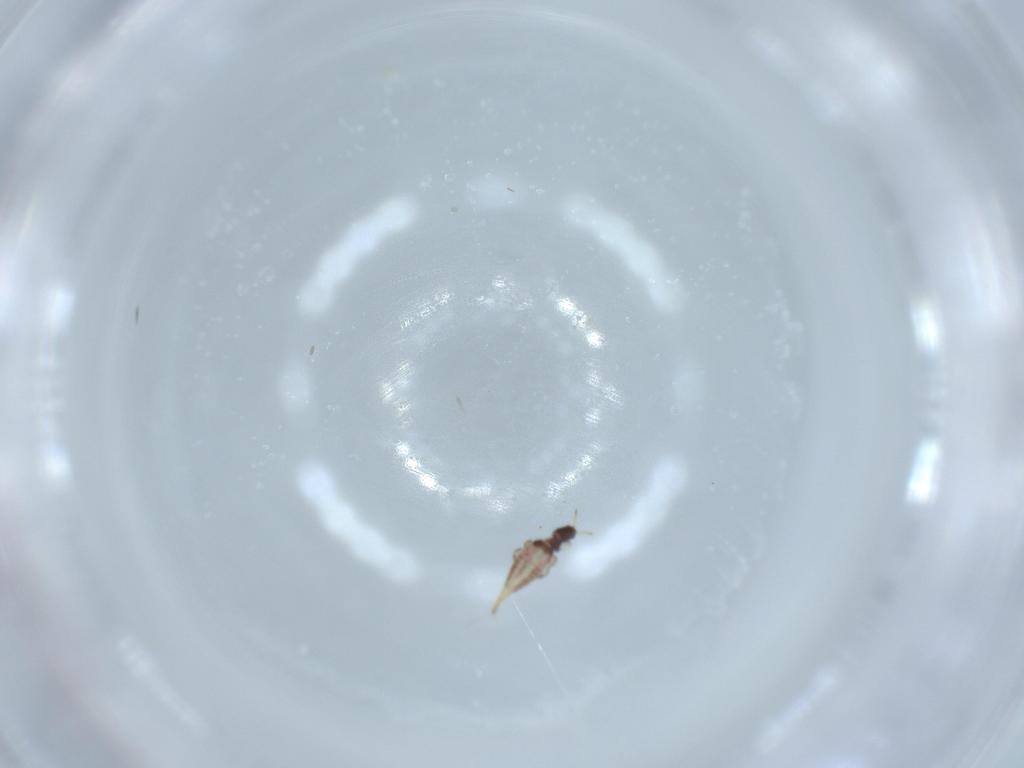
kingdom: Animalia
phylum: Arthropoda
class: Insecta
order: Thysanoptera
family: Phlaeothripidae
